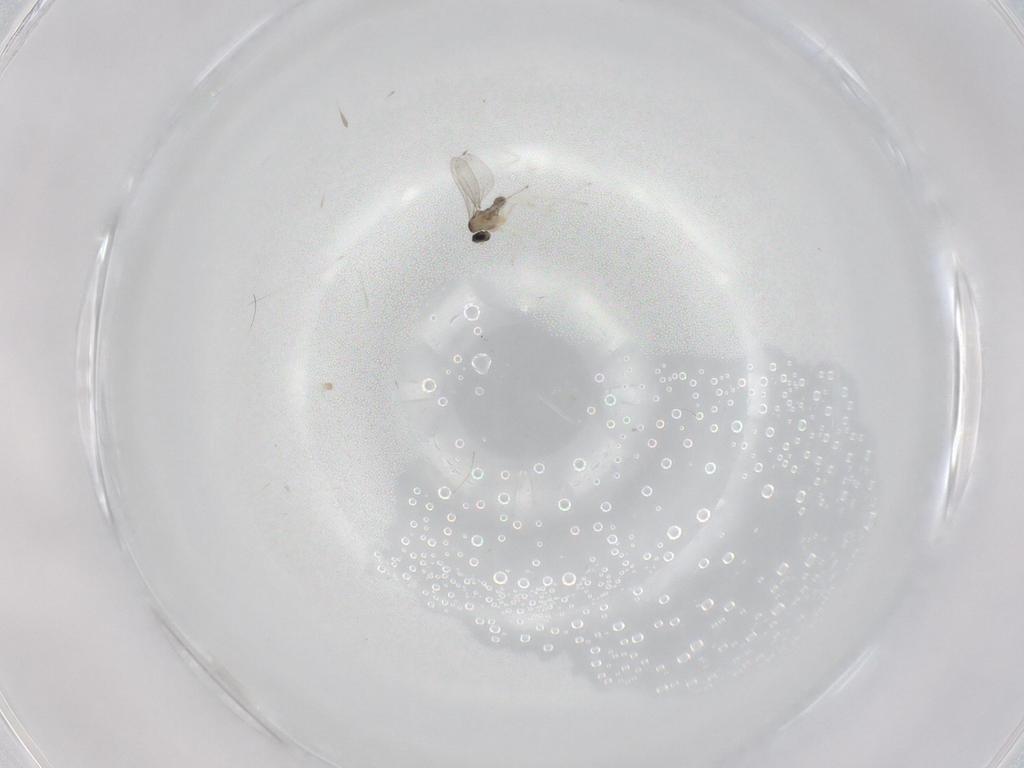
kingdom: Animalia
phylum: Arthropoda
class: Insecta
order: Diptera
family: Cecidomyiidae
